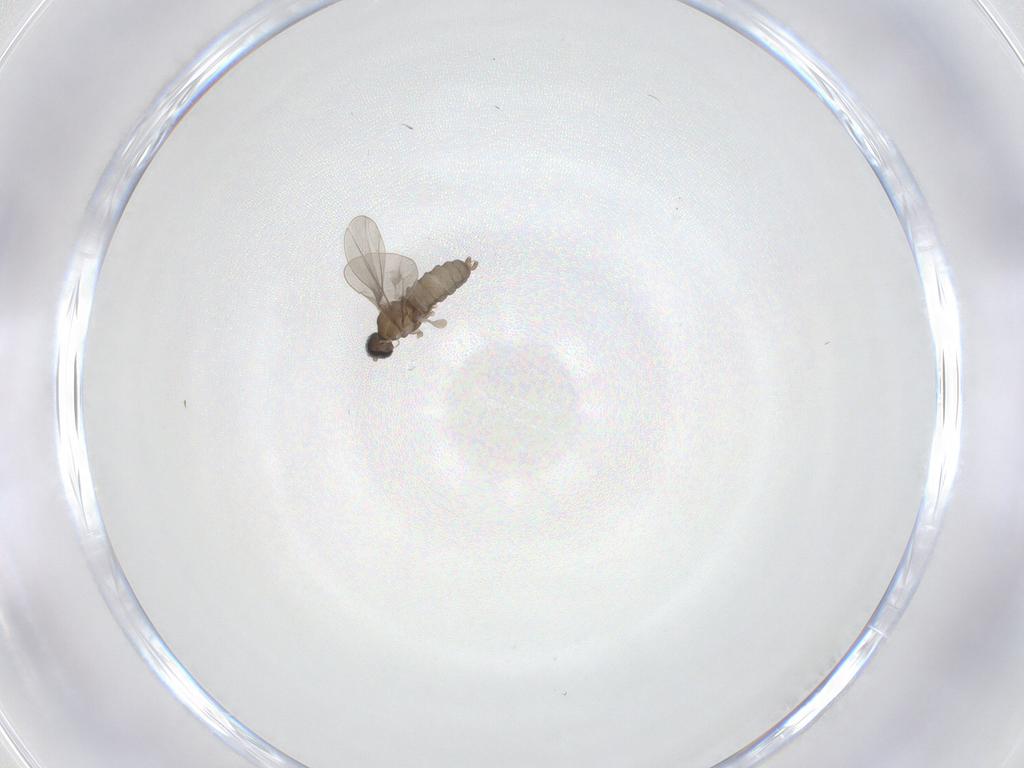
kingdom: Animalia
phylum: Arthropoda
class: Insecta
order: Diptera
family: Cecidomyiidae
